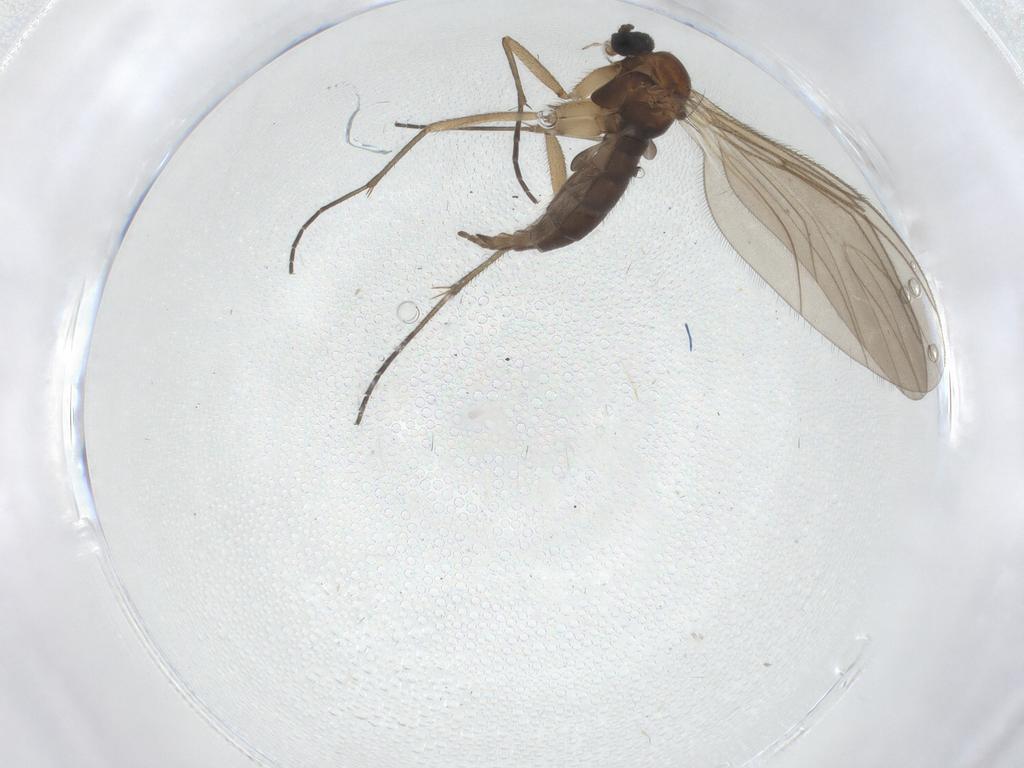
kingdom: Animalia
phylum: Arthropoda
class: Insecta
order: Diptera
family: Sciaridae
